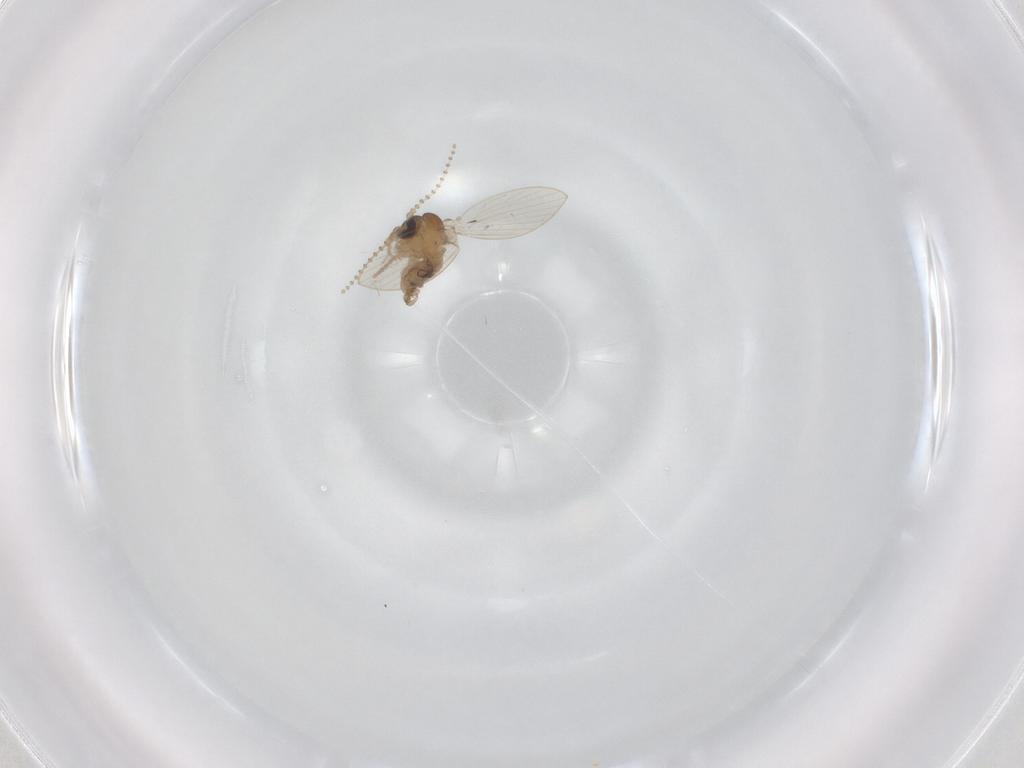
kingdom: Animalia
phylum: Arthropoda
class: Insecta
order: Diptera
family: Psychodidae
